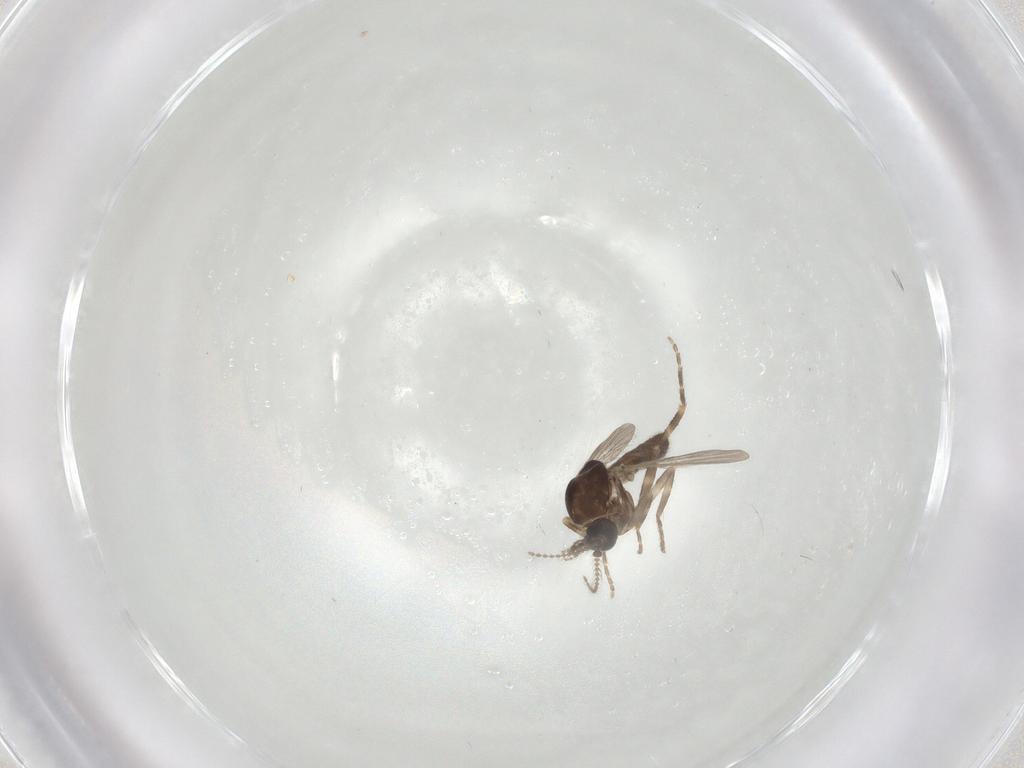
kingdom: Animalia
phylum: Arthropoda
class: Insecta
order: Diptera
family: Ceratopogonidae
